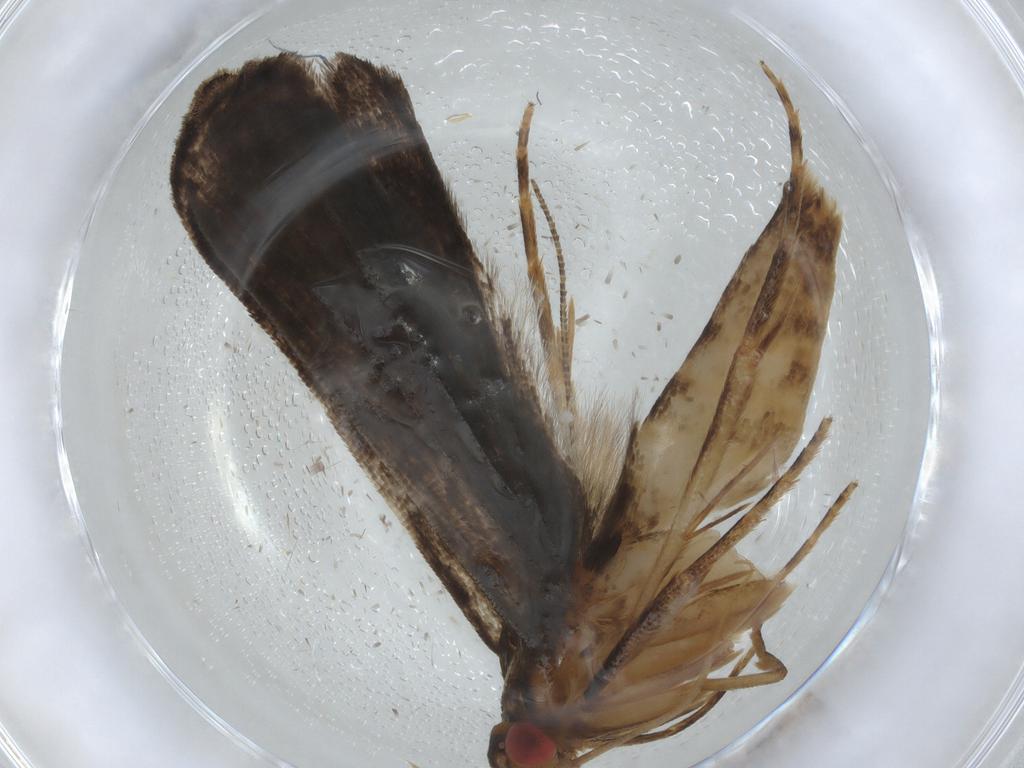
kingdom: Animalia
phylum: Arthropoda
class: Insecta
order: Lepidoptera
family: Noctuidae
